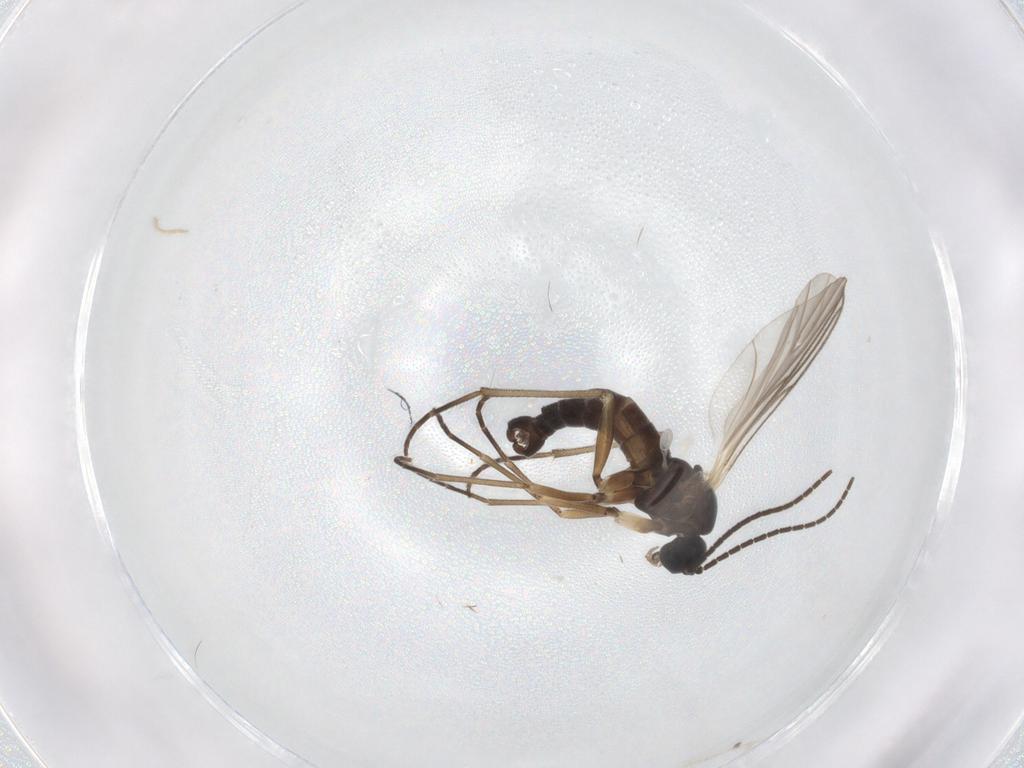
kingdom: Animalia
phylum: Arthropoda
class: Insecta
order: Diptera
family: Sciaridae
